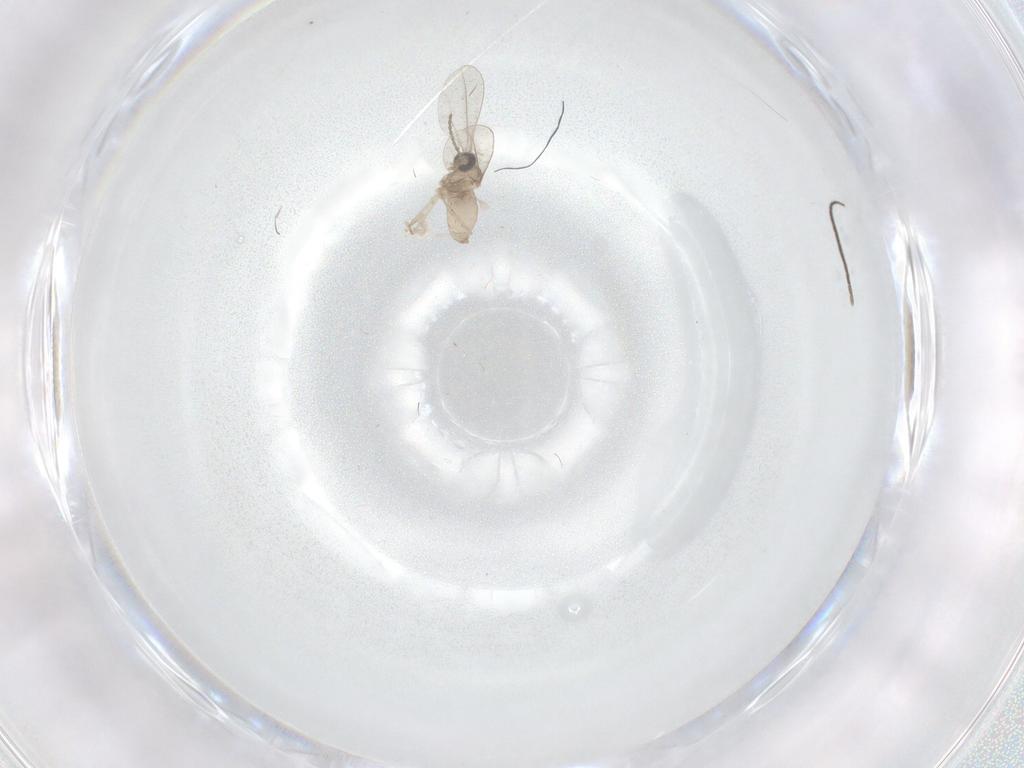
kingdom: Animalia
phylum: Arthropoda
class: Insecta
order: Diptera
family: Cecidomyiidae
